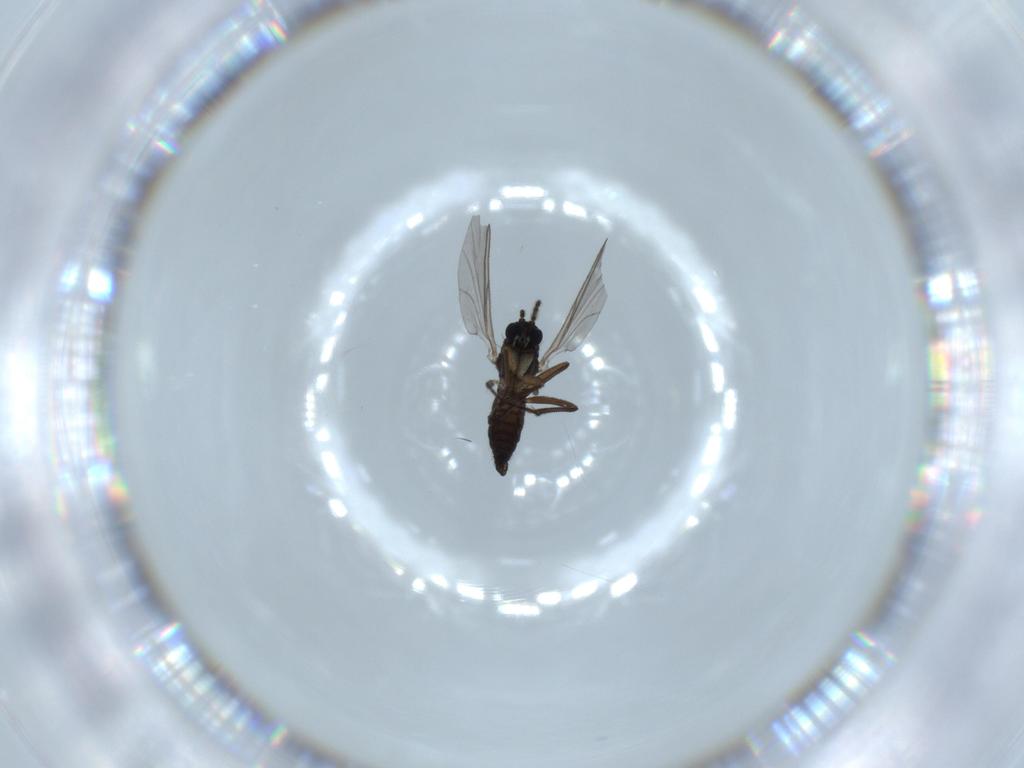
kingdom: Animalia
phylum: Arthropoda
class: Insecta
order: Diptera
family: Sciaridae
